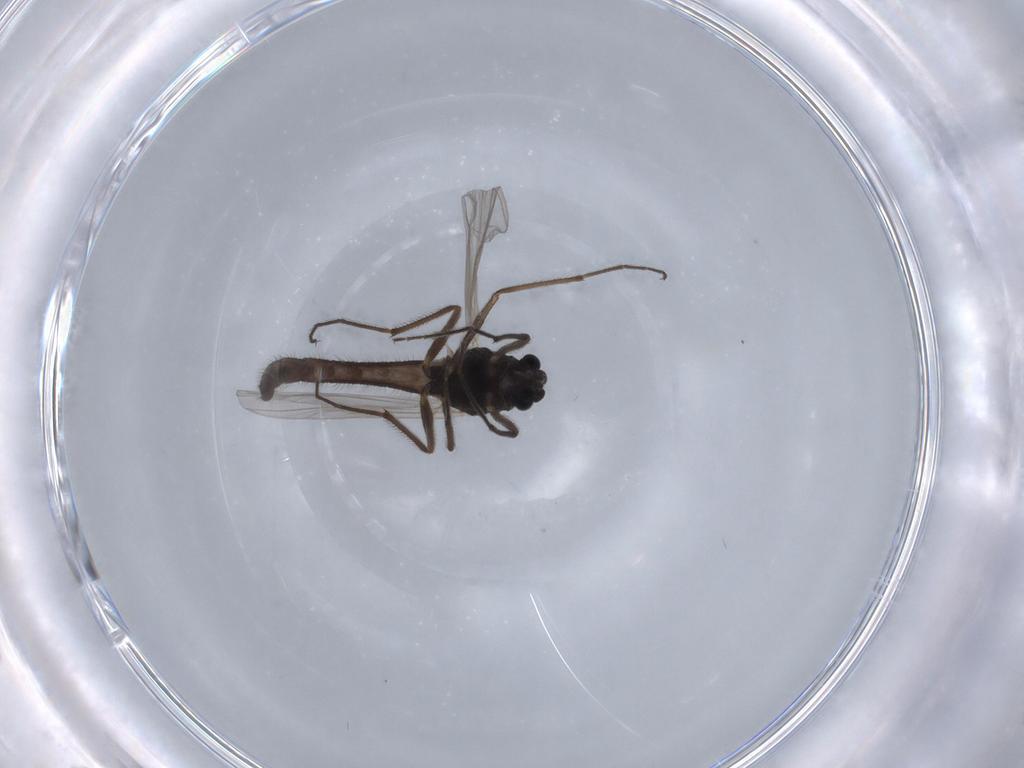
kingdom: Animalia
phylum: Arthropoda
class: Insecta
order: Diptera
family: Chironomidae
